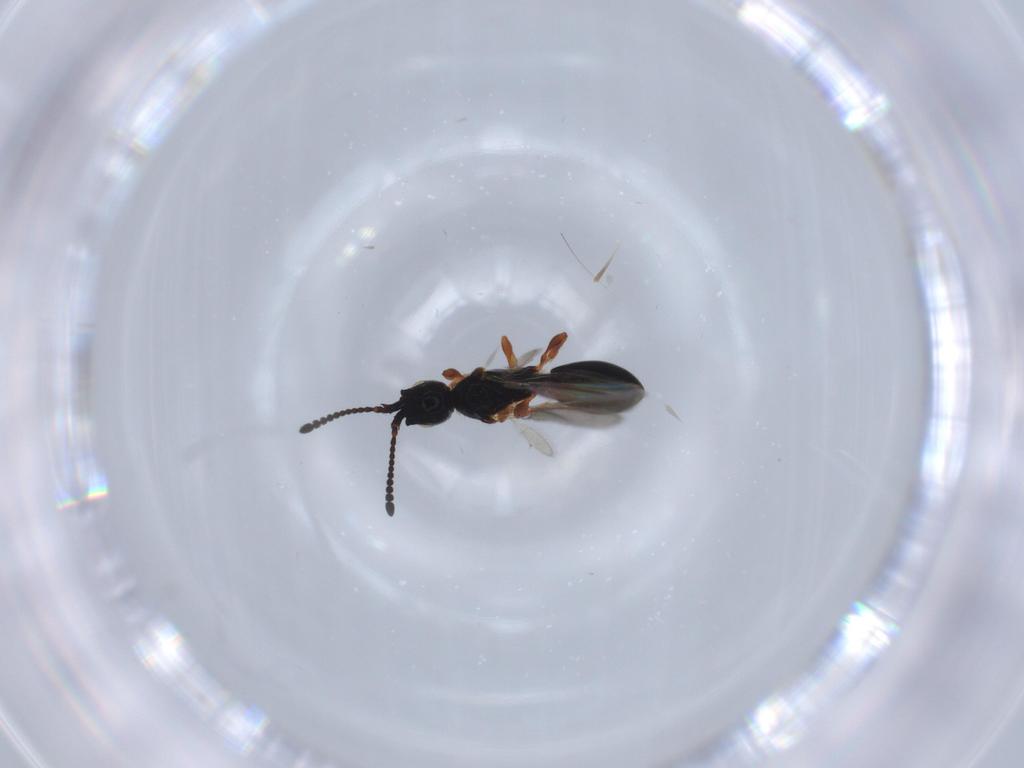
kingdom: Animalia
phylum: Arthropoda
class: Insecta
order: Hymenoptera
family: Diapriidae
